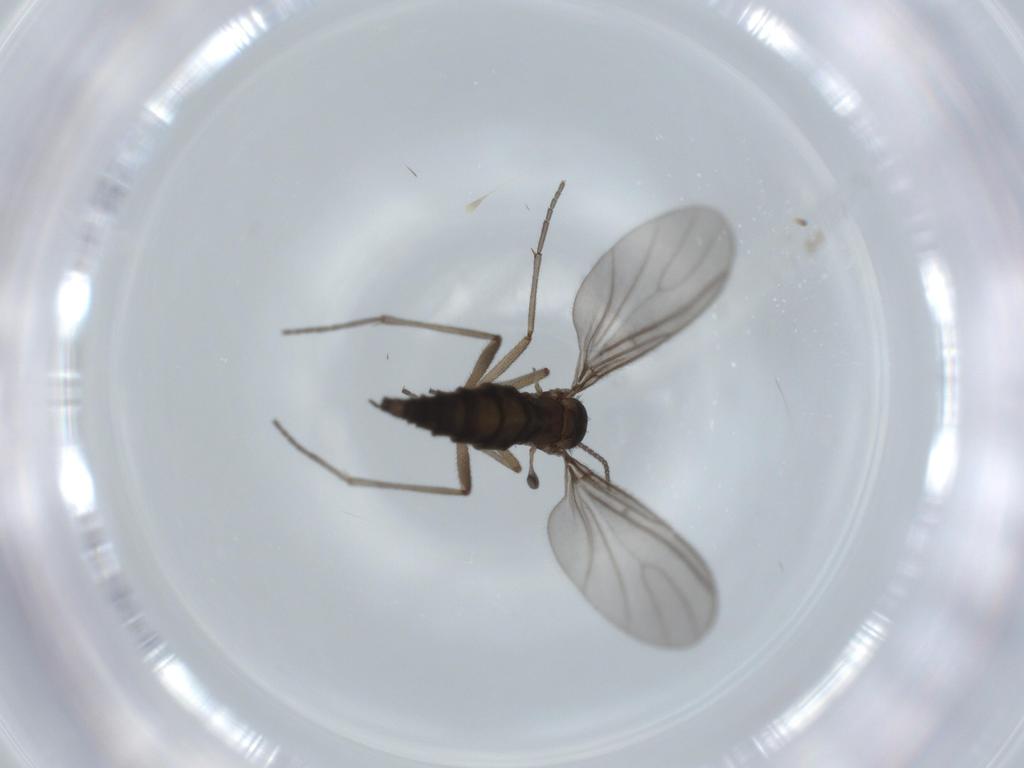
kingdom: Animalia
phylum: Arthropoda
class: Insecta
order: Diptera
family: Sciaridae
